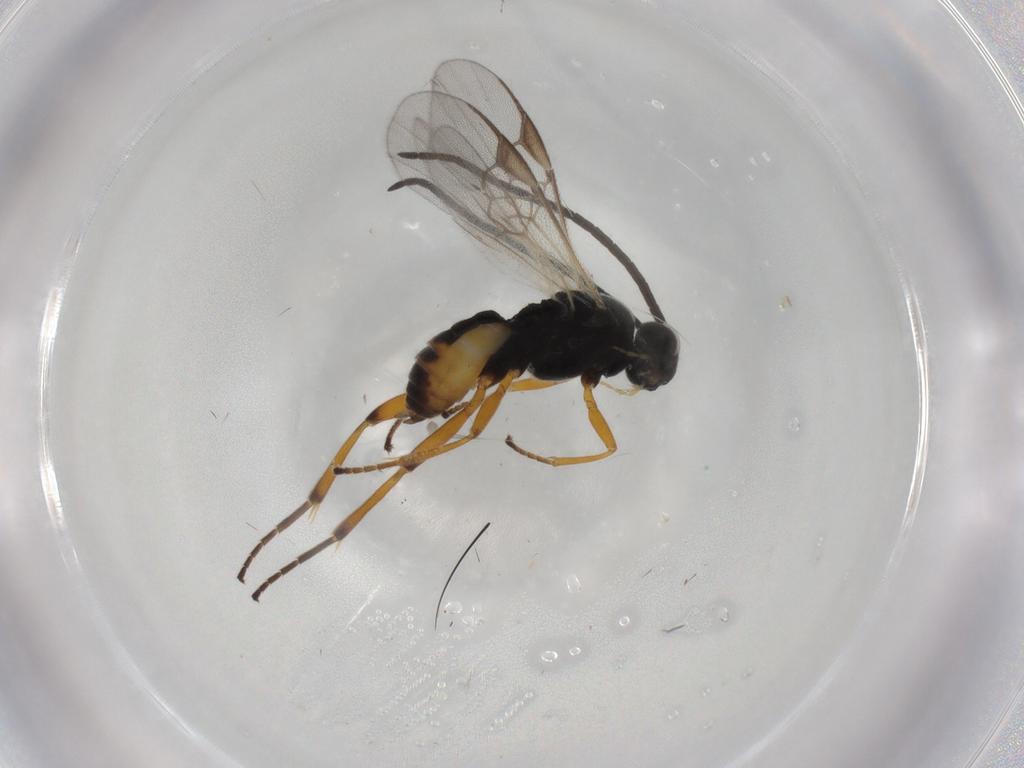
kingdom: Animalia
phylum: Arthropoda
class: Insecta
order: Hymenoptera
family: Braconidae
